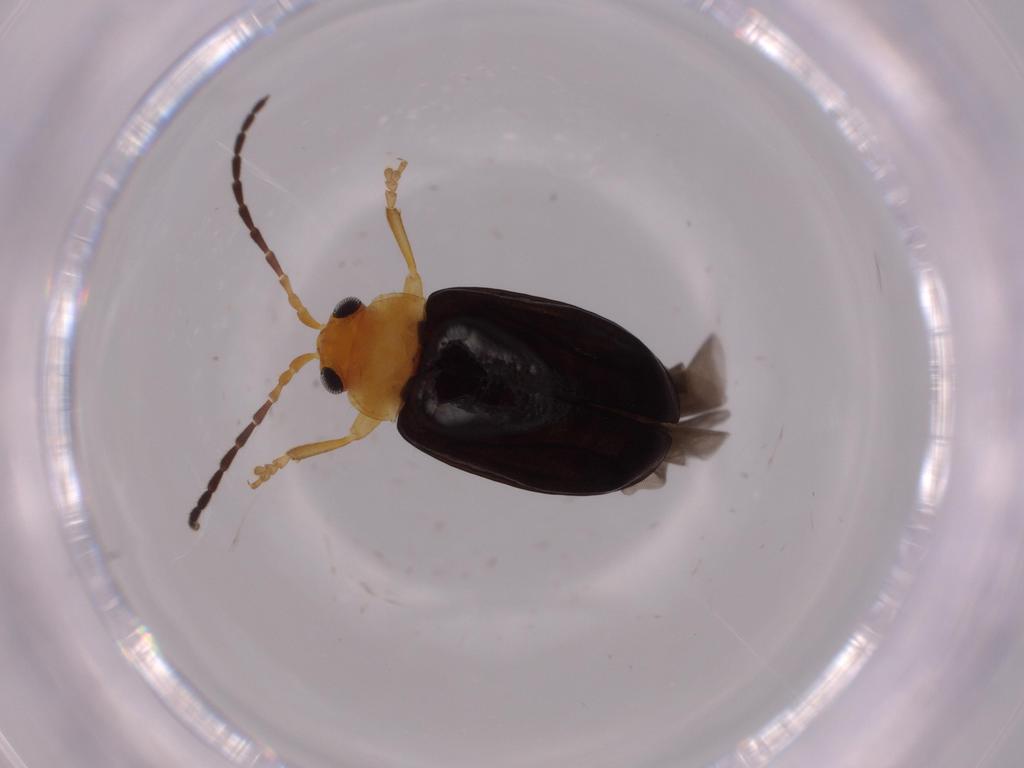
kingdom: Animalia
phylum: Arthropoda
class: Insecta
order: Coleoptera
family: Chrysomelidae
